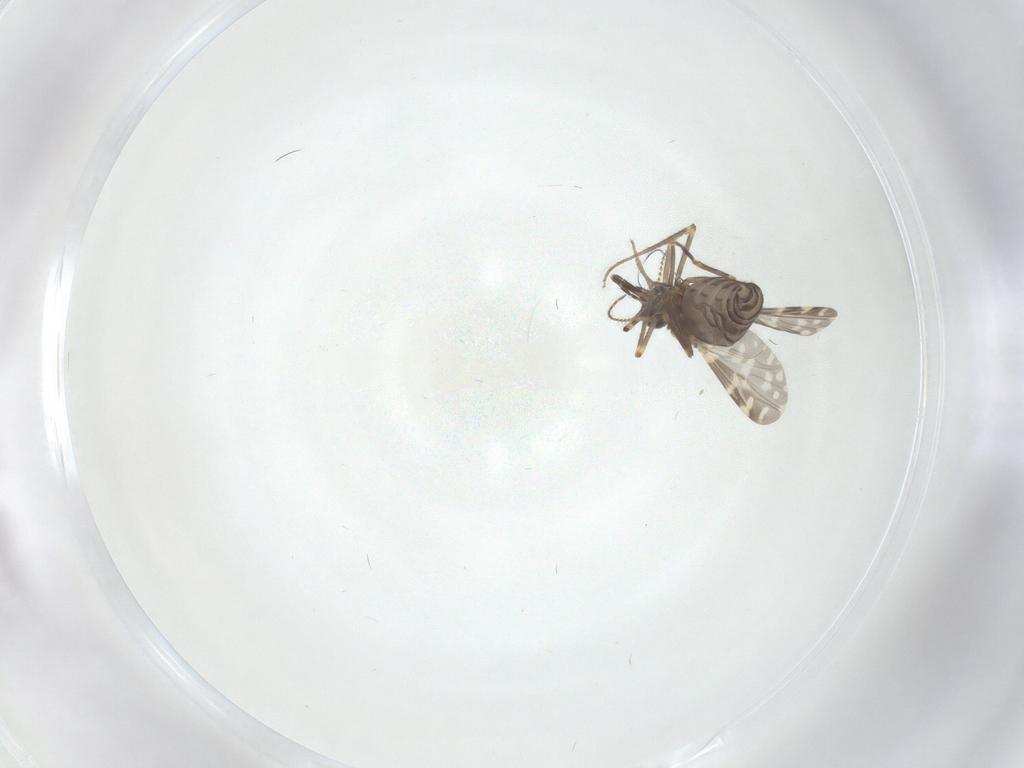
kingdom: Animalia
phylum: Arthropoda
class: Insecta
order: Diptera
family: Ceratopogonidae
